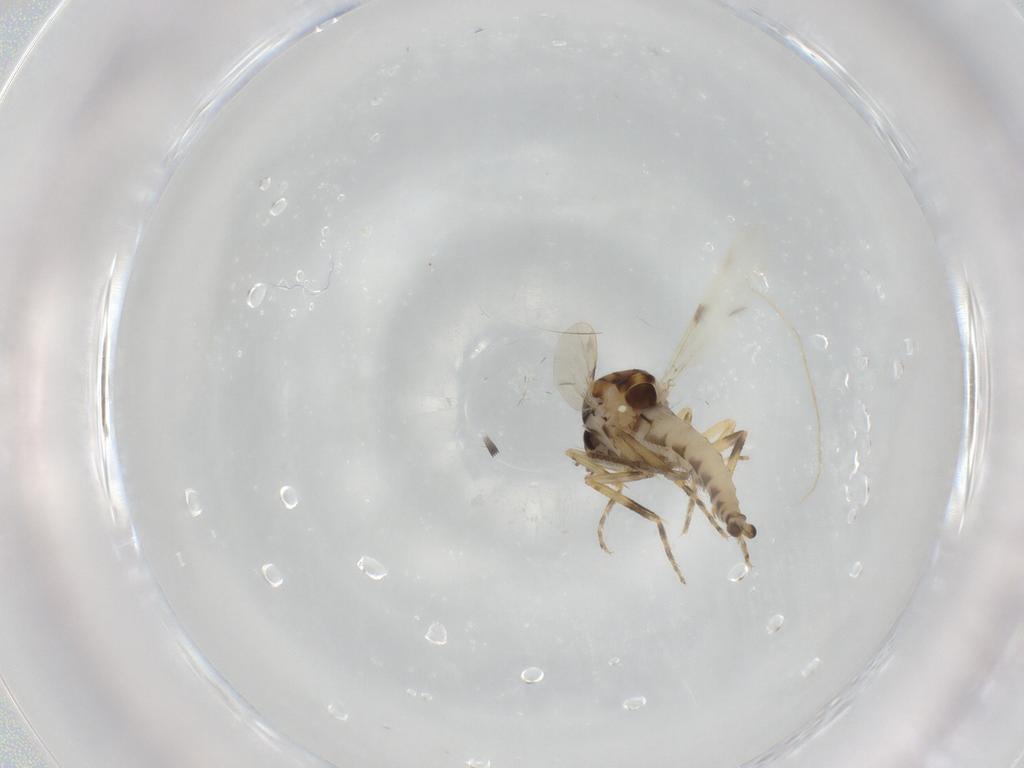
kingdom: Animalia
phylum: Arthropoda
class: Insecta
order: Diptera
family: Ceratopogonidae
